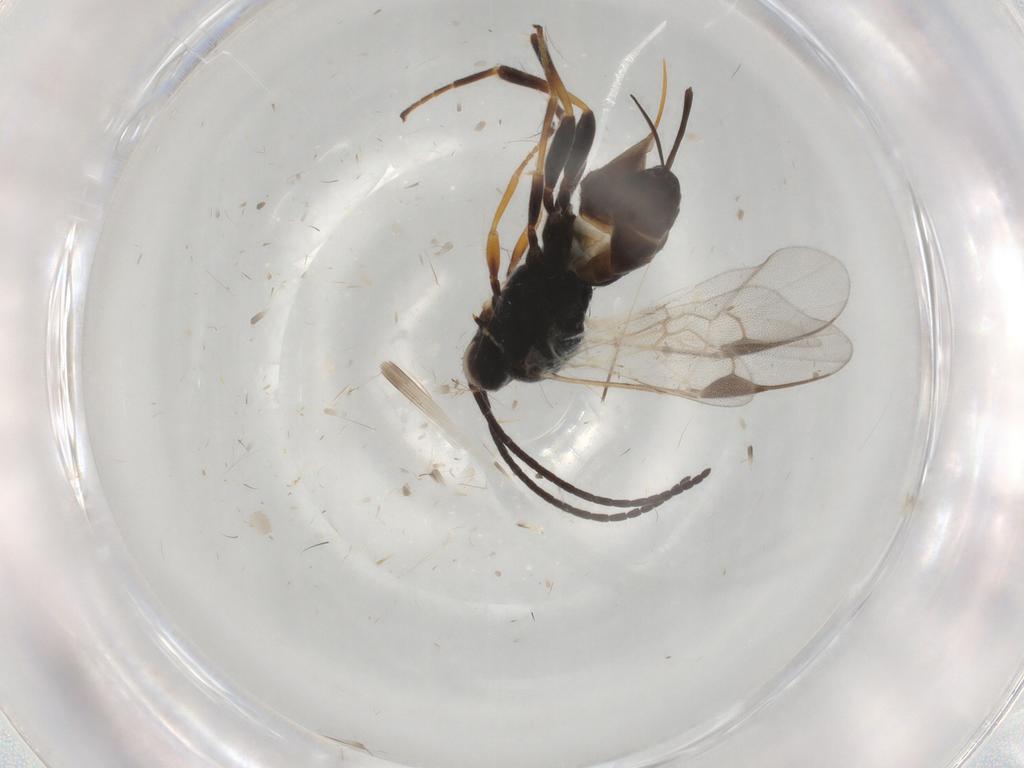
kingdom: Animalia
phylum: Arthropoda
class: Insecta
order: Hymenoptera
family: Braconidae
